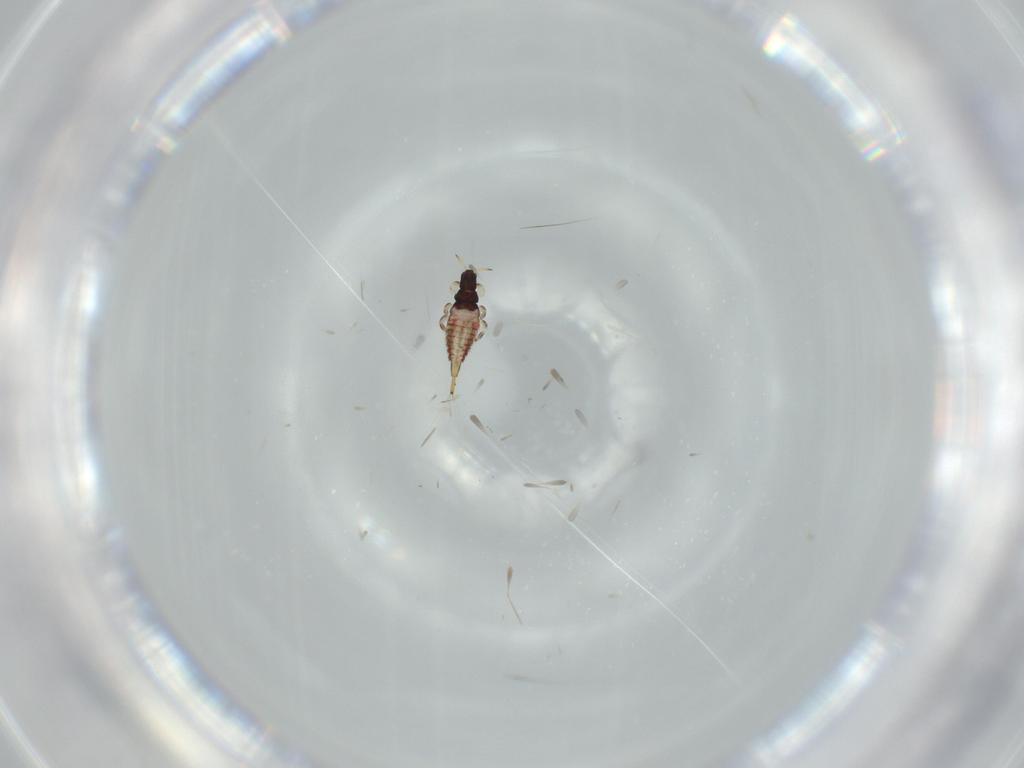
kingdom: Animalia
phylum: Arthropoda
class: Insecta
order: Thysanoptera
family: Phlaeothripidae
